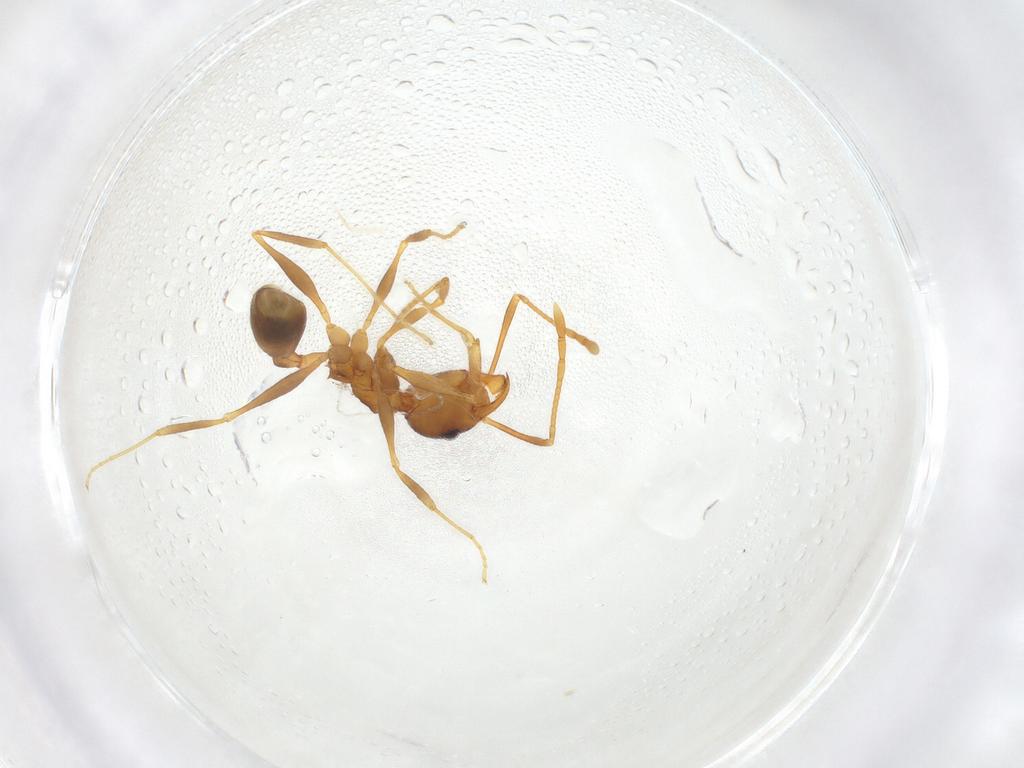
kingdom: Animalia
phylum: Arthropoda
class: Insecta
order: Hymenoptera
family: Formicidae
